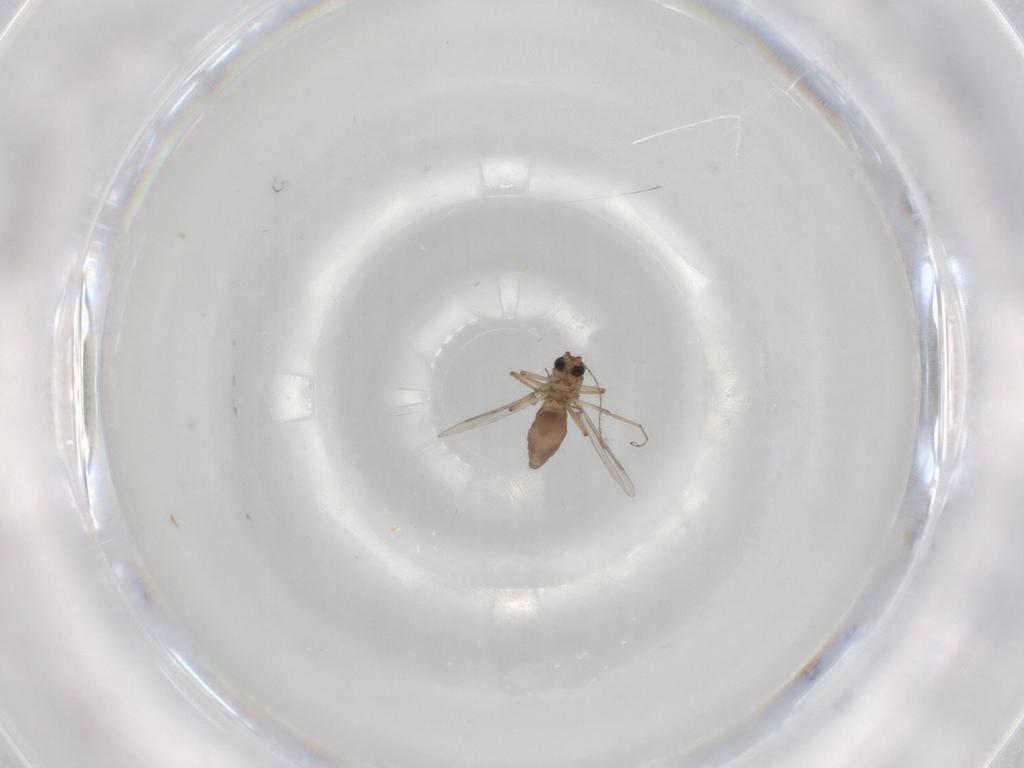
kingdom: Animalia
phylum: Arthropoda
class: Insecta
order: Diptera
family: Ceratopogonidae
